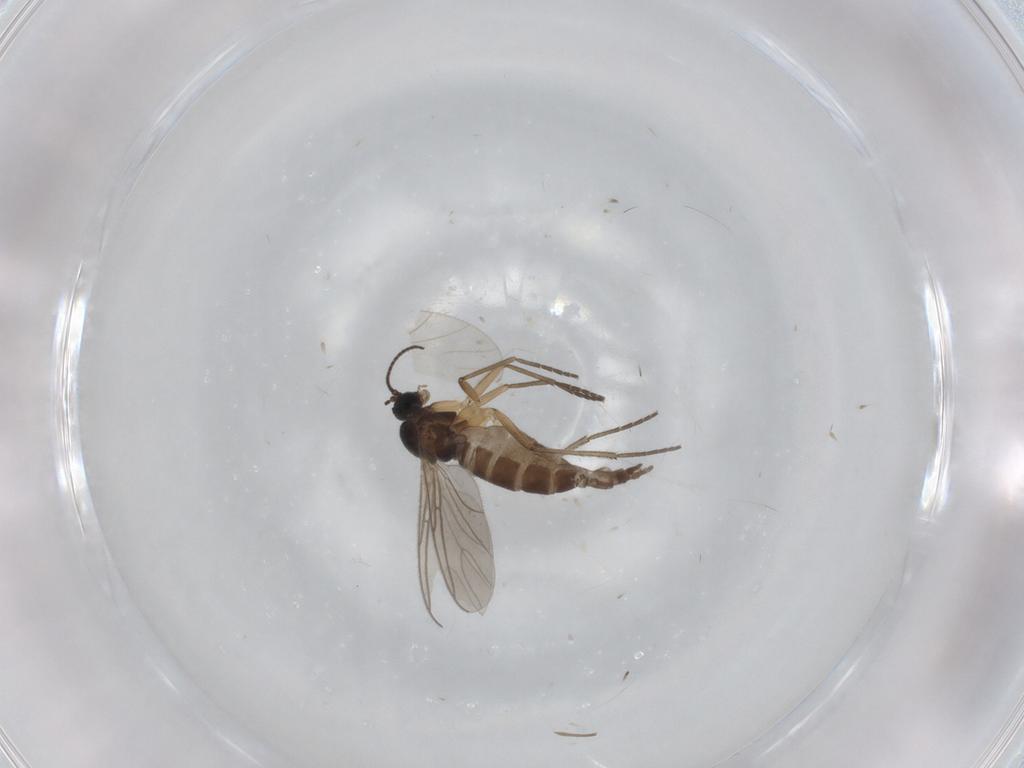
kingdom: Animalia
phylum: Arthropoda
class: Insecta
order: Diptera
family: Sciaridae
